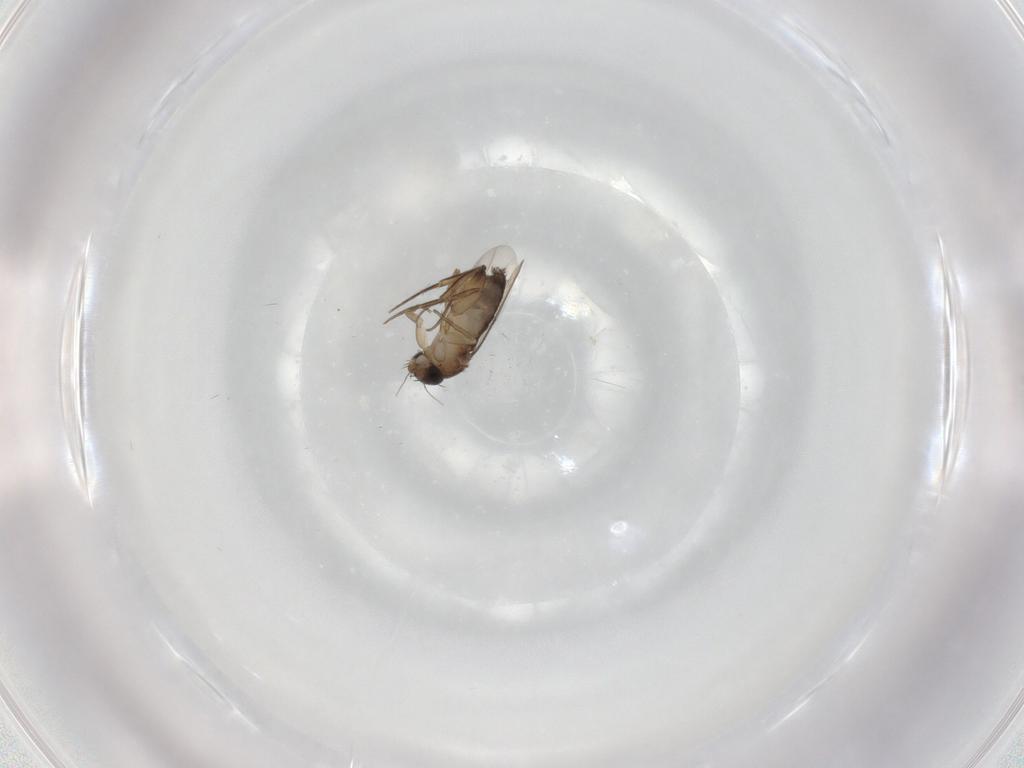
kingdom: Animalia
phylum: Arthropoda
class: Insecta
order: Diptera
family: Phoridae
